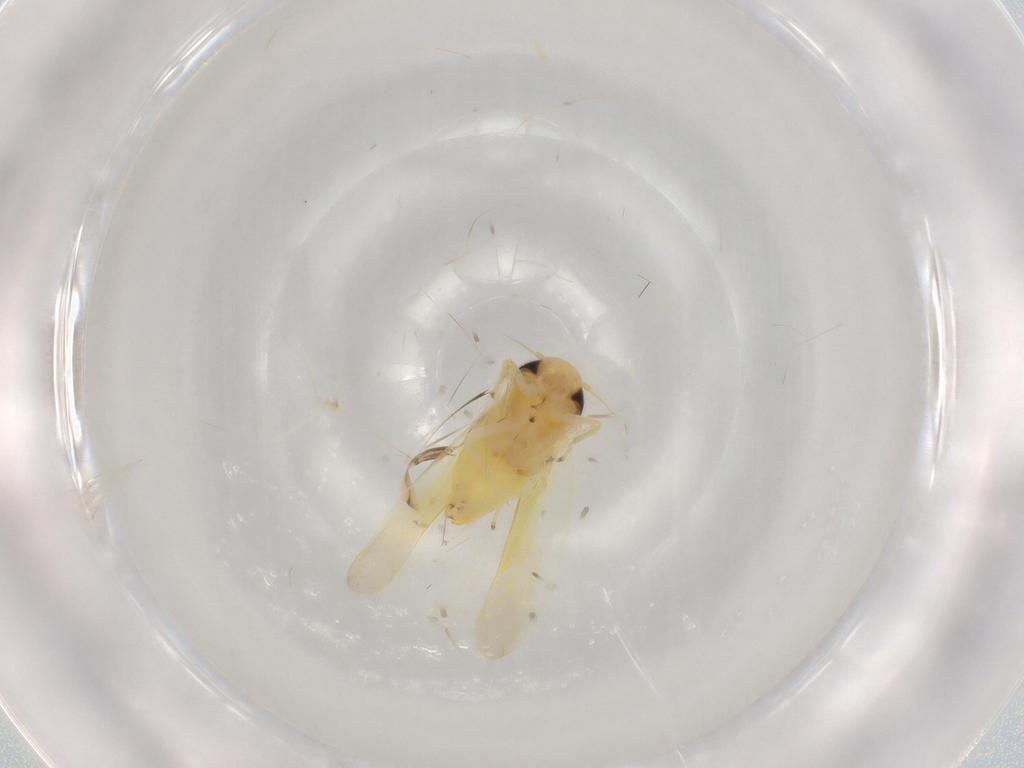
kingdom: Animalia
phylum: Arthropoda
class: Insecta
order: Hemiptera
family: Cicadellidae
